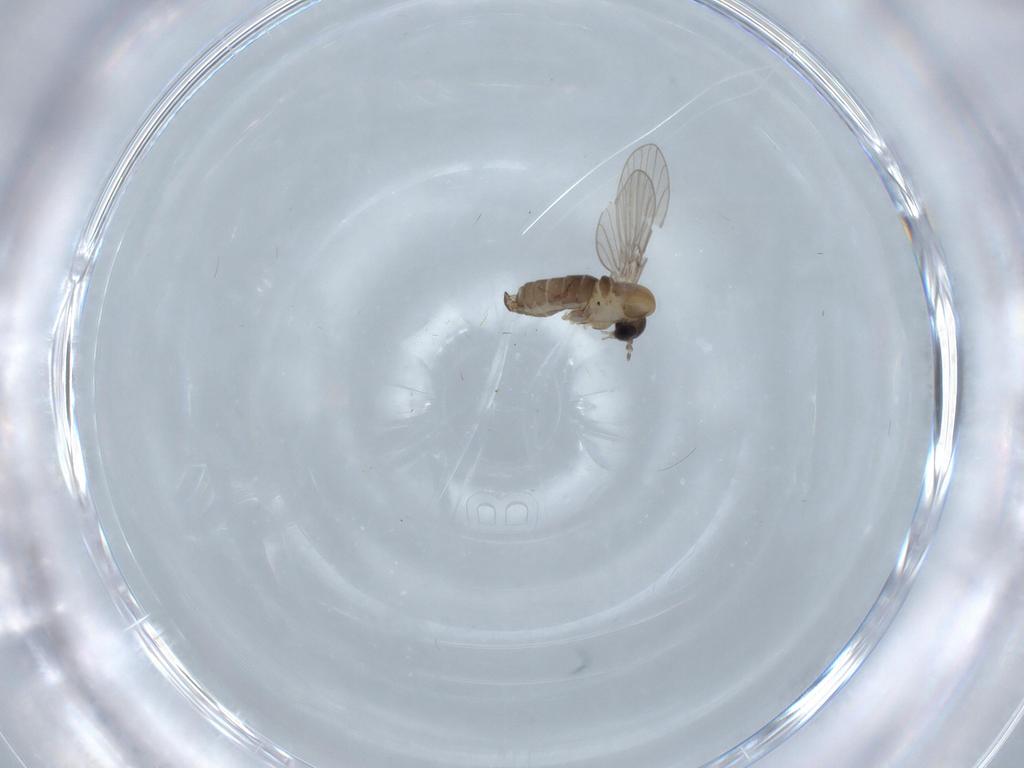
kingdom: Animalia
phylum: Arthropoda
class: Insecta
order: Diptera
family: Psychodidae
